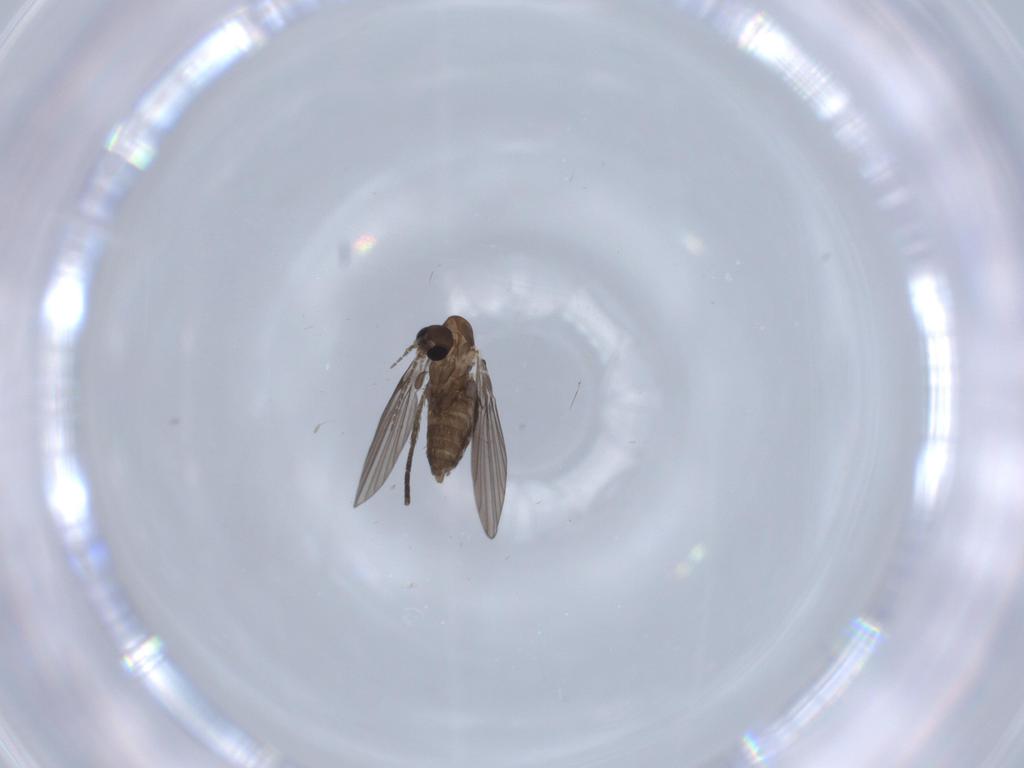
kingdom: Animalia
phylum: Arthropoda
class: Insecta
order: Diptera
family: Psychodidae
